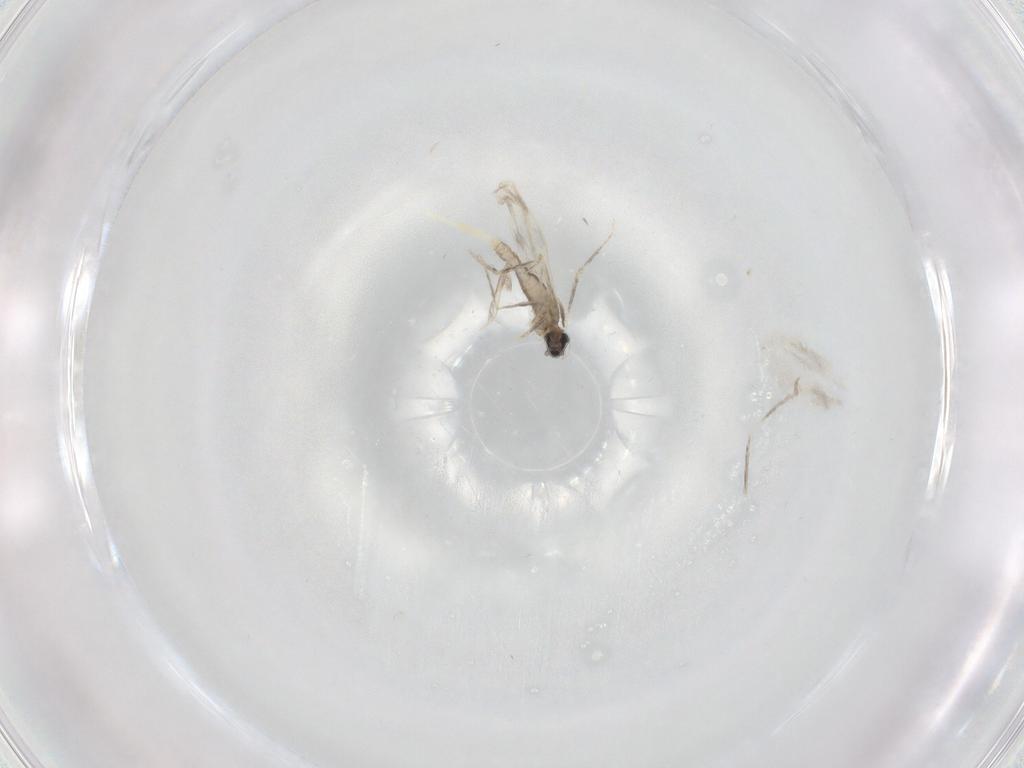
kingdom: Animalia
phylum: Arthropoda
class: Insecta
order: Diptera
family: Cecidomyiidae
